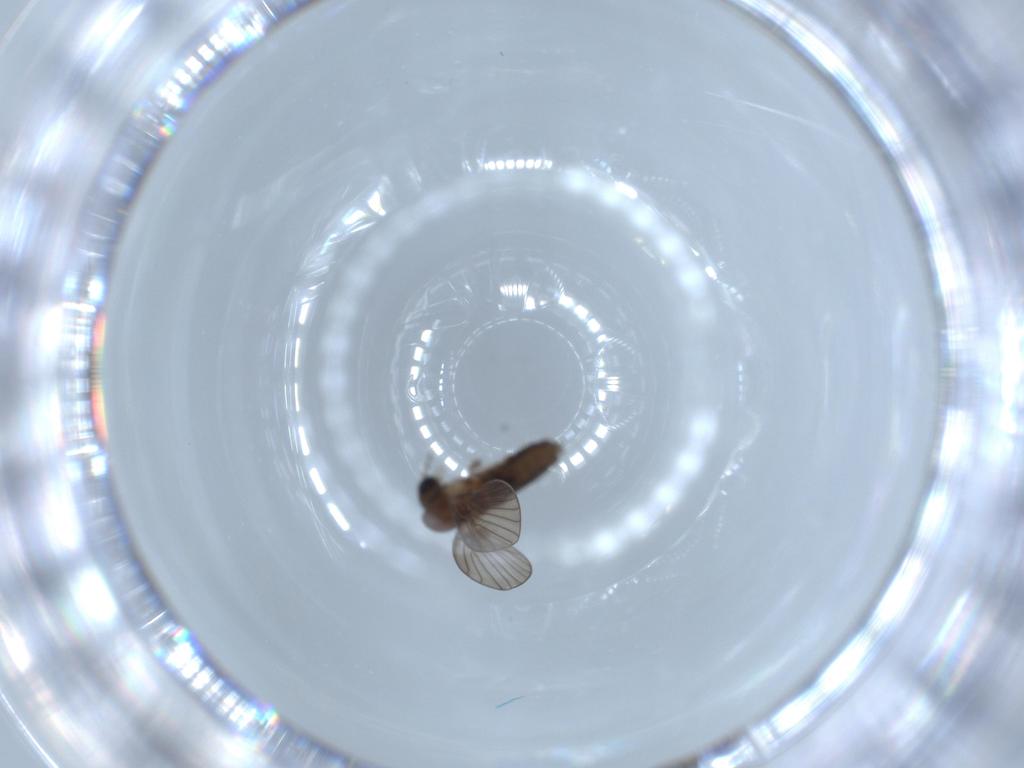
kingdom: Animalia
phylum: Arthropoda
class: Insecta
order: Diptera
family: Psychodidae
